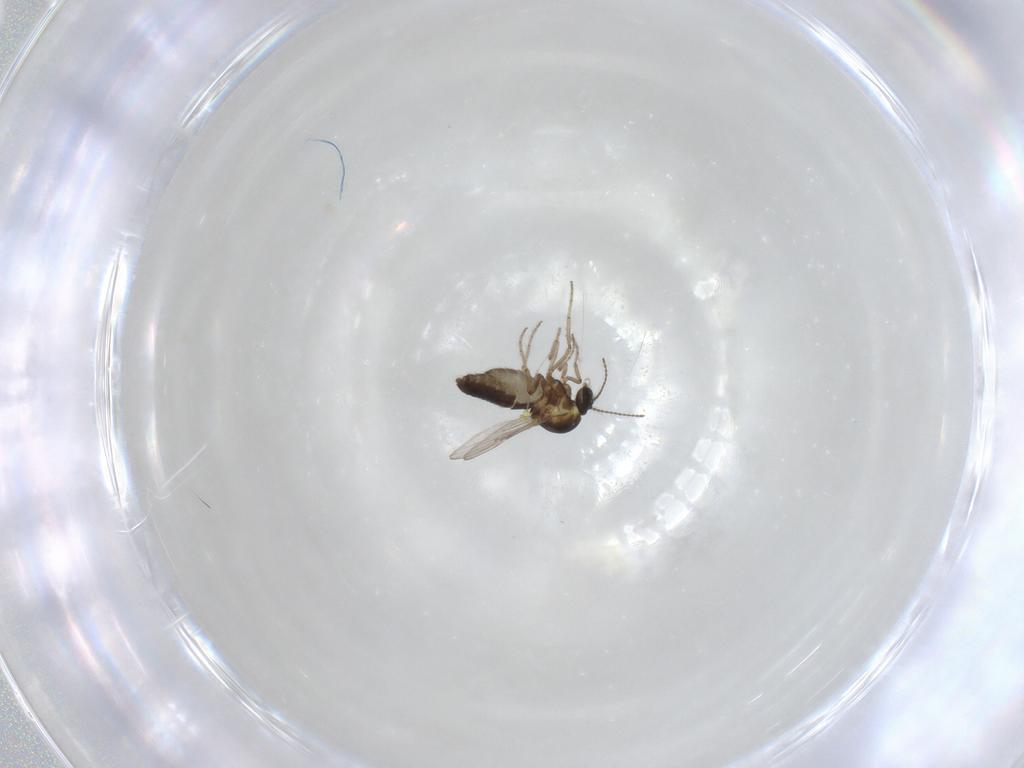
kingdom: Animalia
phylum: Arthropoda
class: Insecta
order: Diptera
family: Ceratopogonidae
